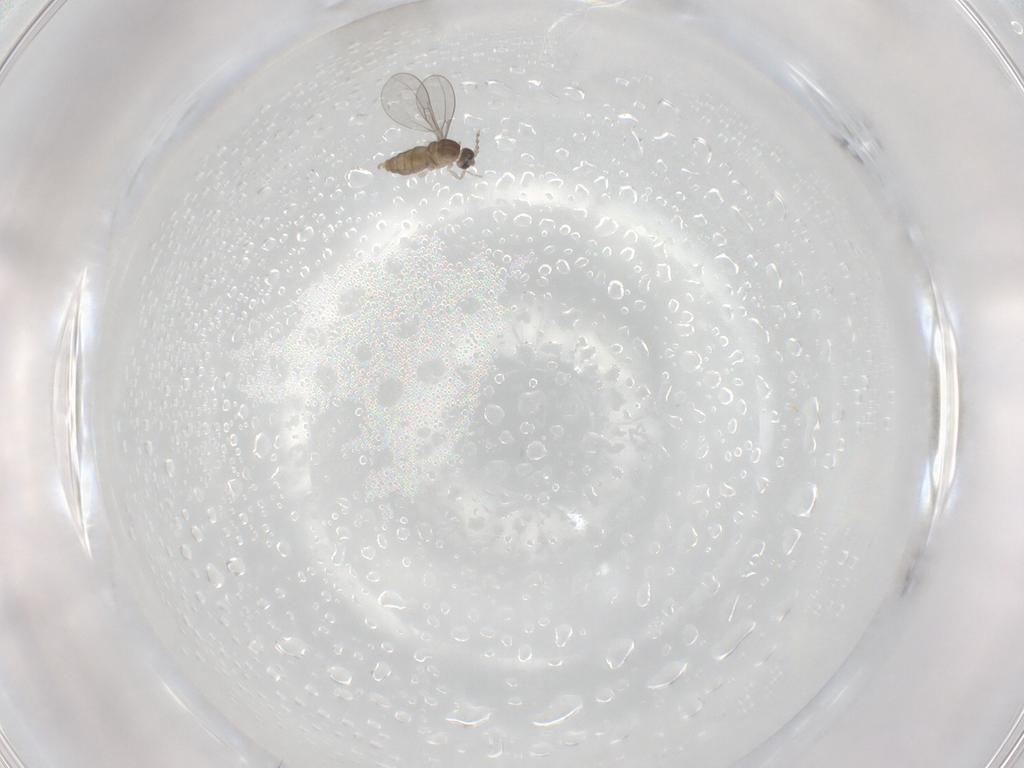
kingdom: Animalia
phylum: Arthropoda
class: Insecta
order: Diptera
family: Cecidomyiidae
